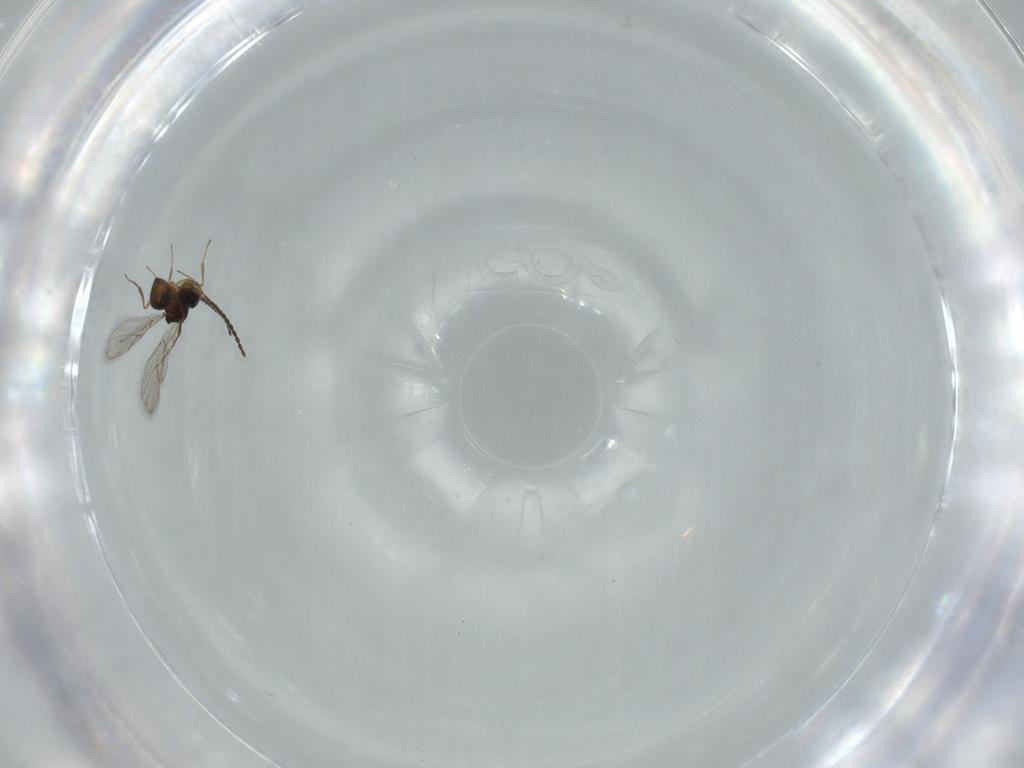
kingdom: Animalia
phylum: Arthropoda
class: Insecta
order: Hymenoptera
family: Figitidae
